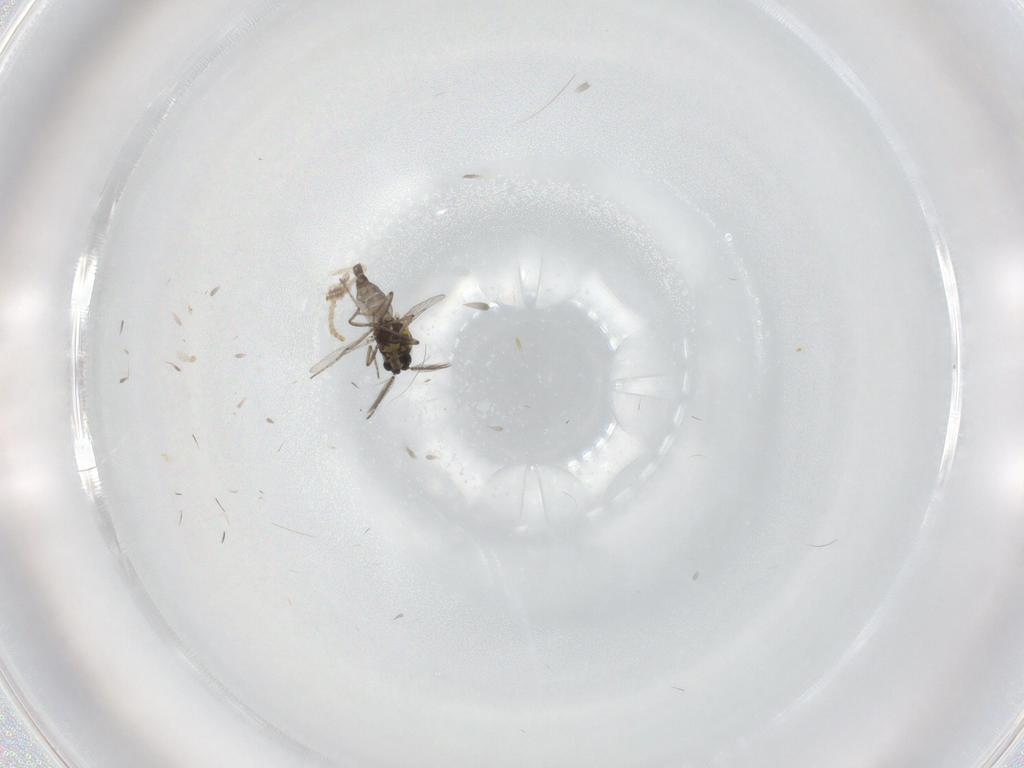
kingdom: Animalia
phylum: Arthropoda
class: Insecta
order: Diptera
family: Ceratopogonidae
